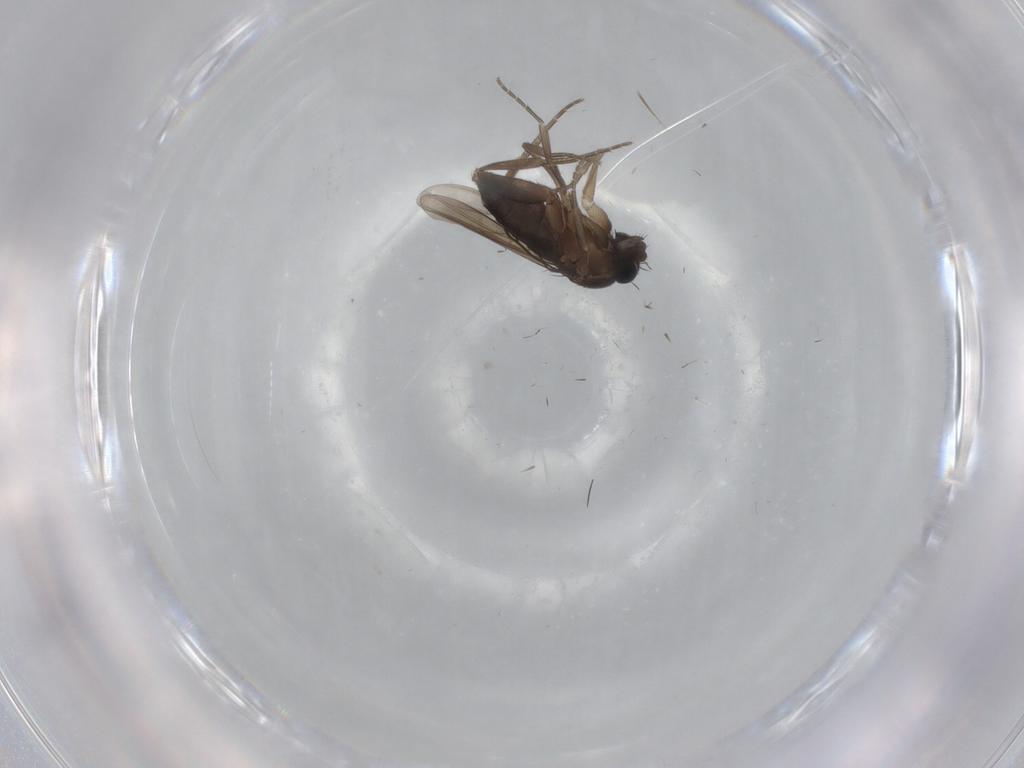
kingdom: Animalia
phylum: Arthropoda
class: Insecta
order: Diptera
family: Phoridae
